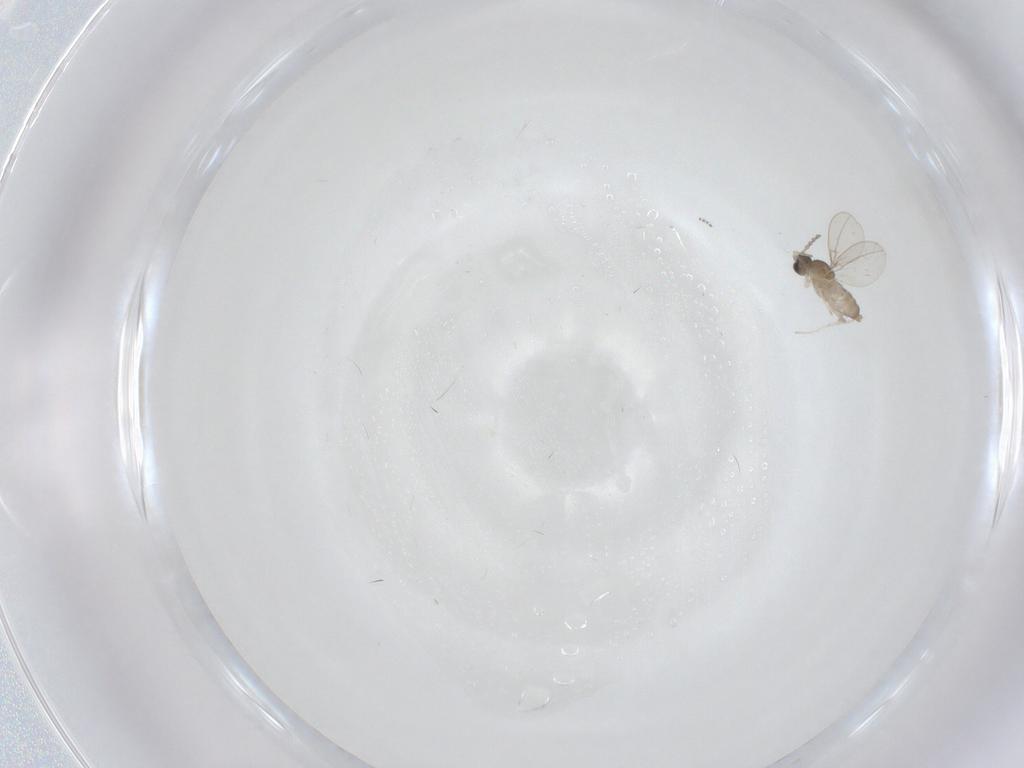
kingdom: Animalia
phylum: Arthropoda
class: Insecta
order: Diptera
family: Cecidomyiidae
